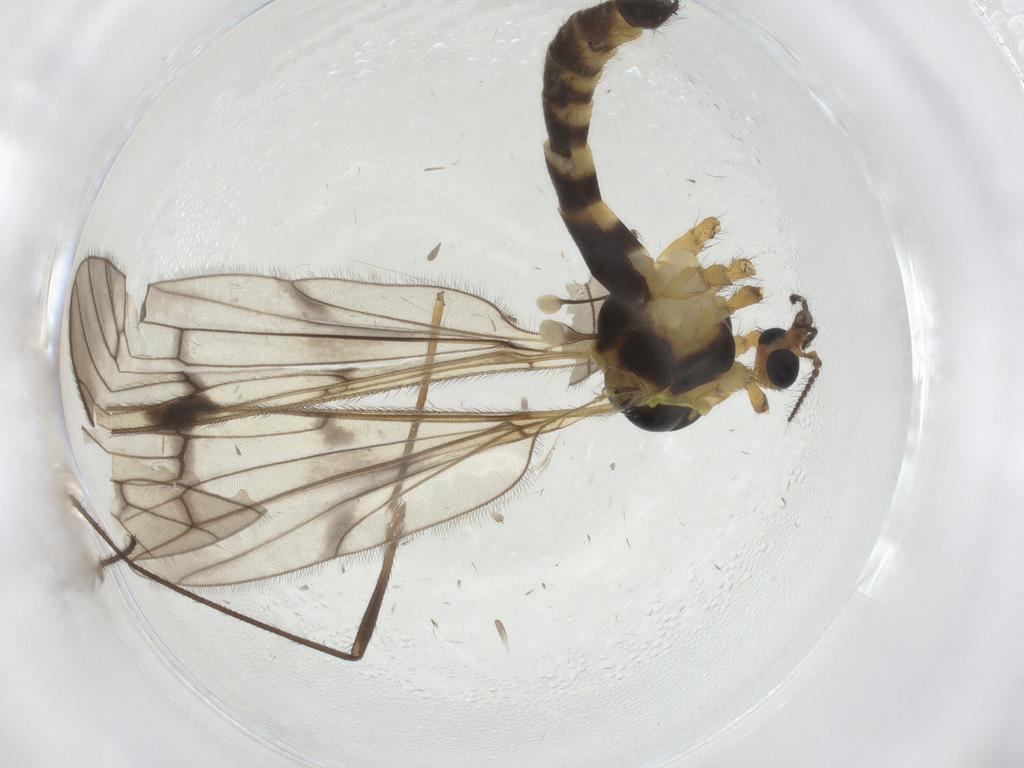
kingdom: Animalia
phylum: Arthropoda
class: Insecta
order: Diptera
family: Limoniidae
